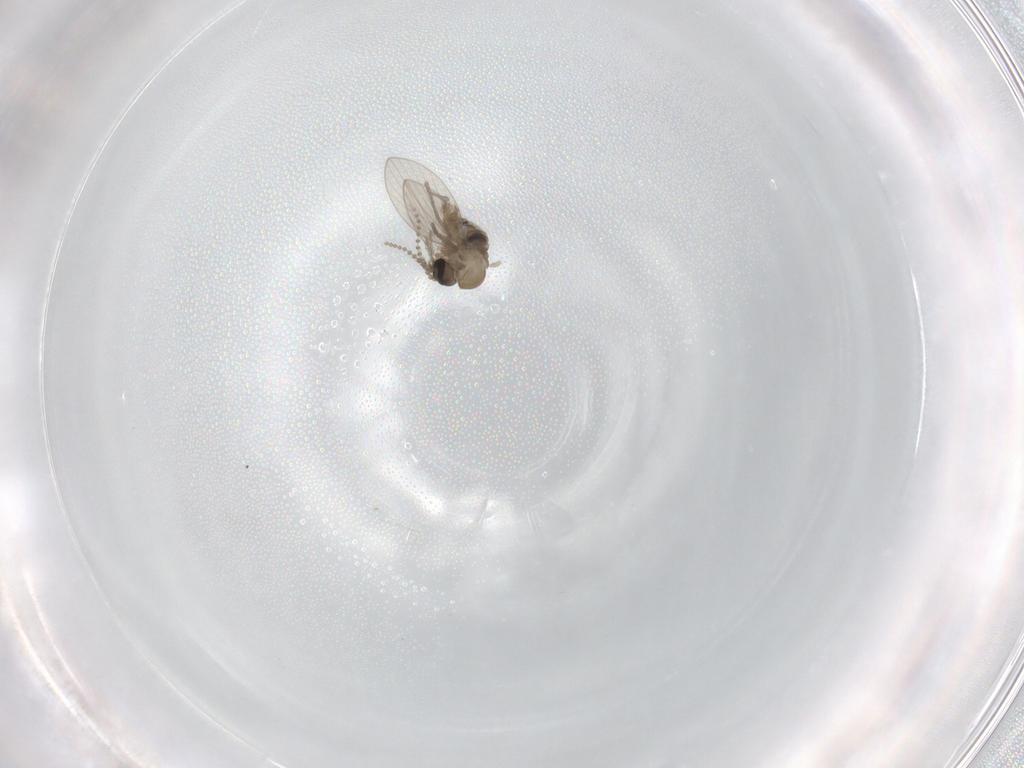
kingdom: Animalia
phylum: Arthropoda
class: Insecta
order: Diptera
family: Psychodidae
